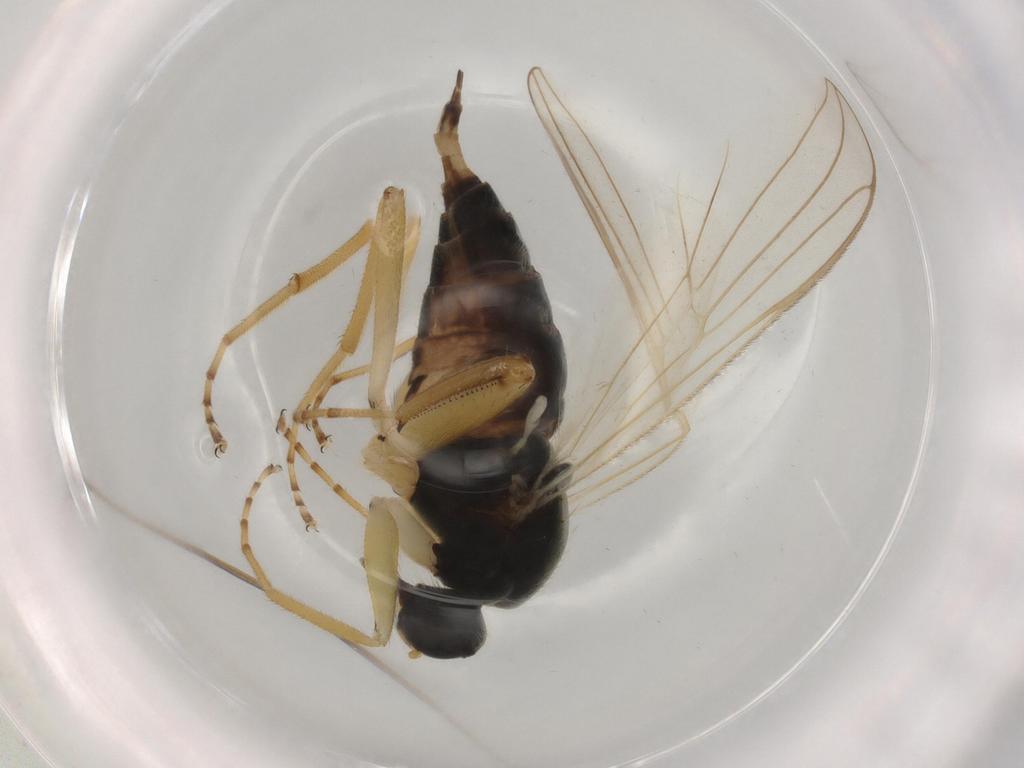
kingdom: Animalia
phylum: Arthropoda
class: Insecta
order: Diptera
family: Hybotidae
